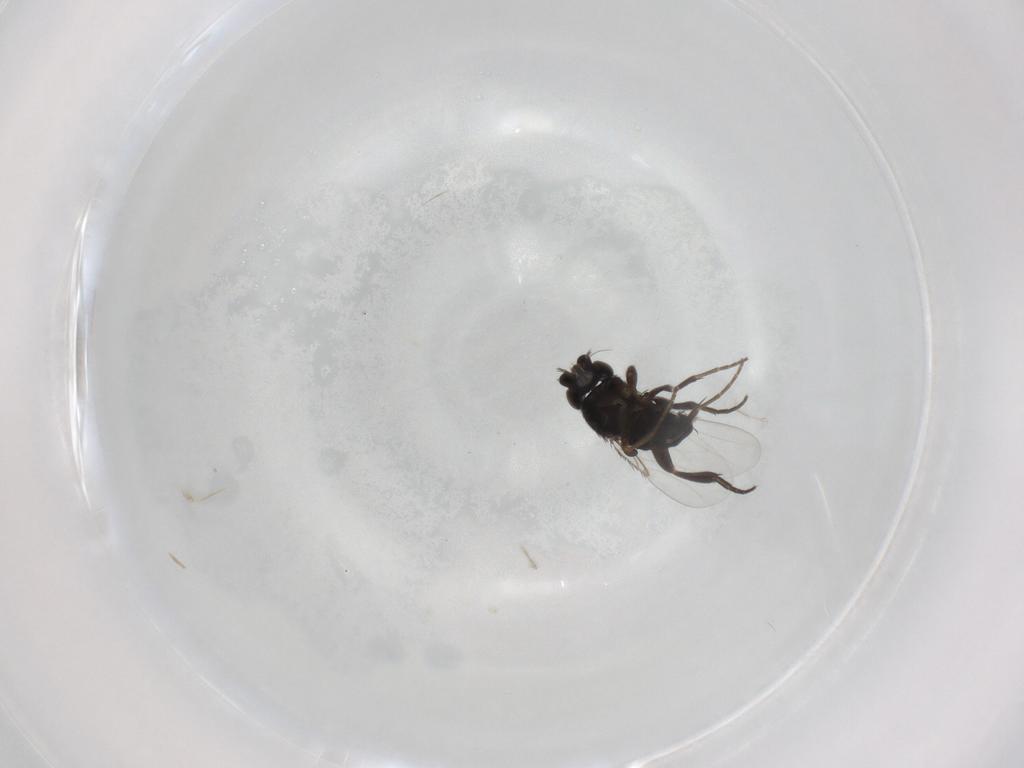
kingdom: Animalia
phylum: Arthropoda
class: Insecta
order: Diptera
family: Phoridae
